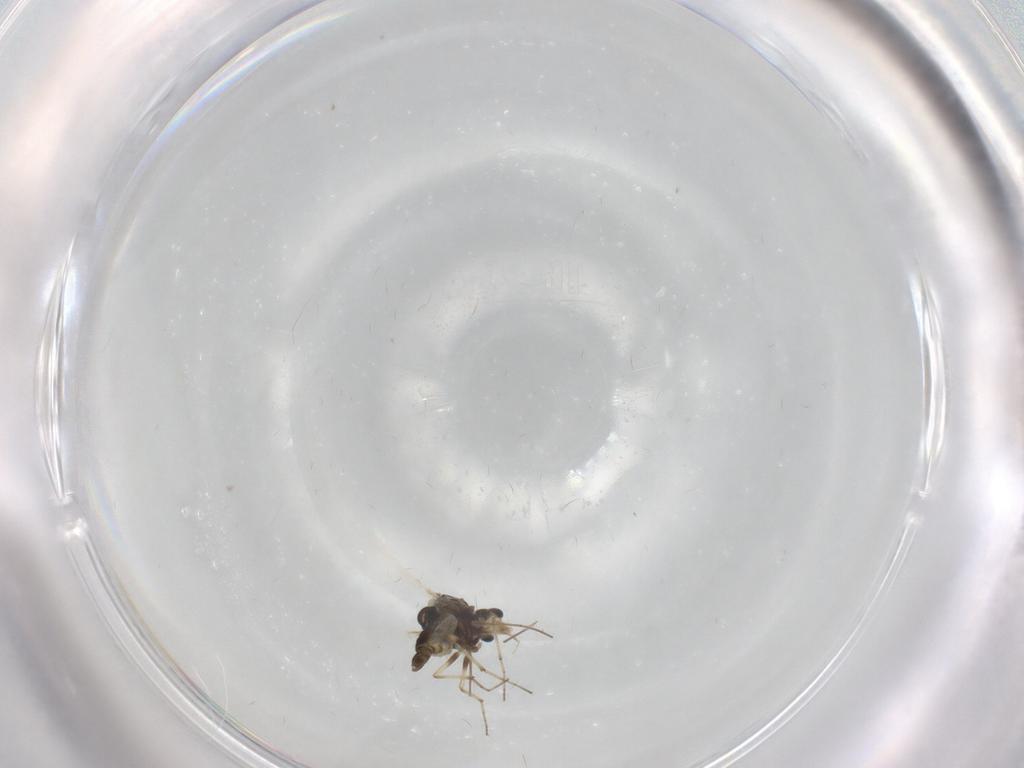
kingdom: Animalia
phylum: Arthropoda
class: Insecta
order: Diptera
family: Chironomidae
